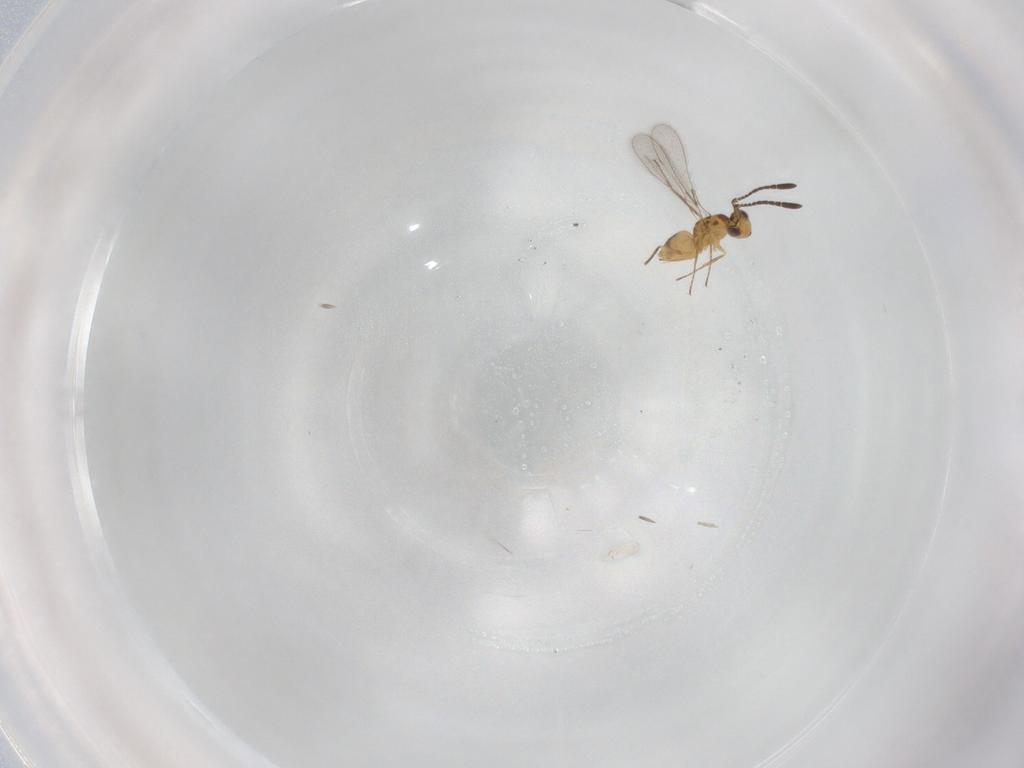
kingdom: Animalia
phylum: Arthropoda
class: Insecta
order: Hymenoptera
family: Mymaridae
